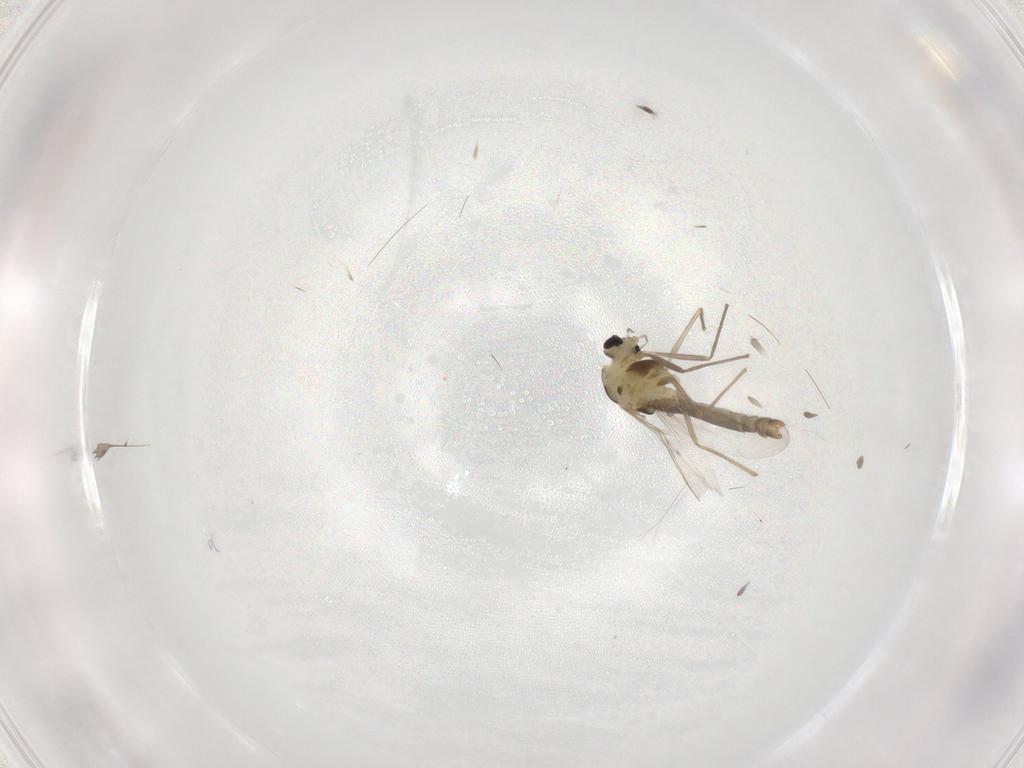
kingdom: Animalia
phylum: Arthropoda
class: Insecta
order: Diptera
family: Chironomidae
